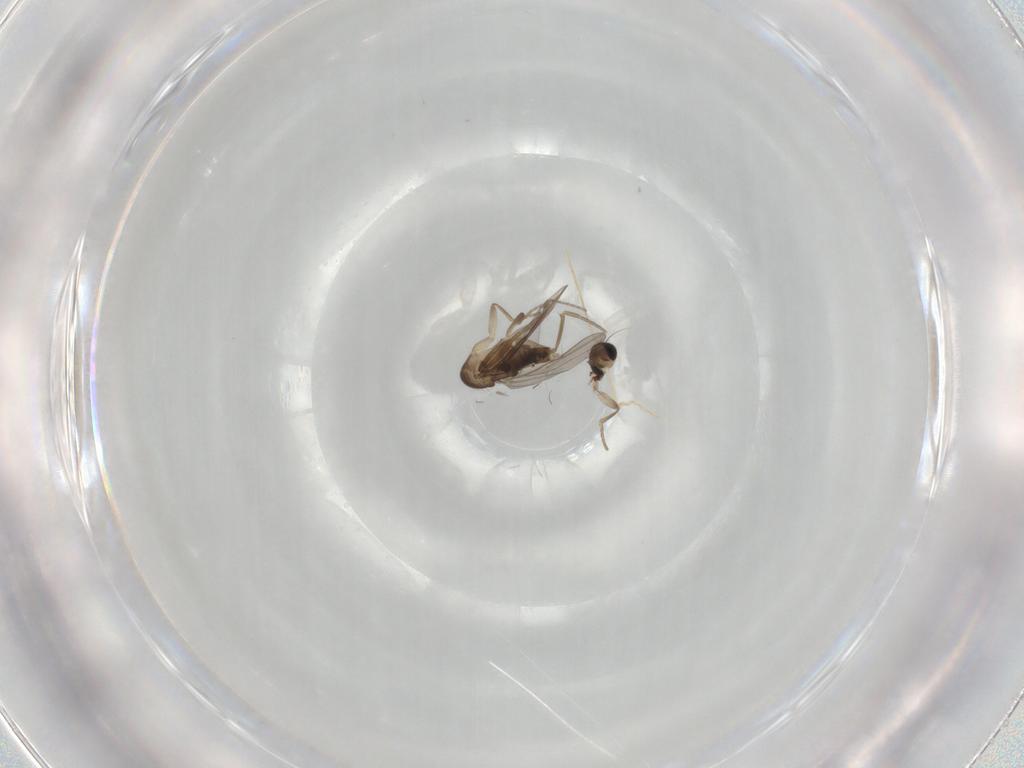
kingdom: Animalia
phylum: Arthropoda
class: Insecta
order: Diptera
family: Phoridae
